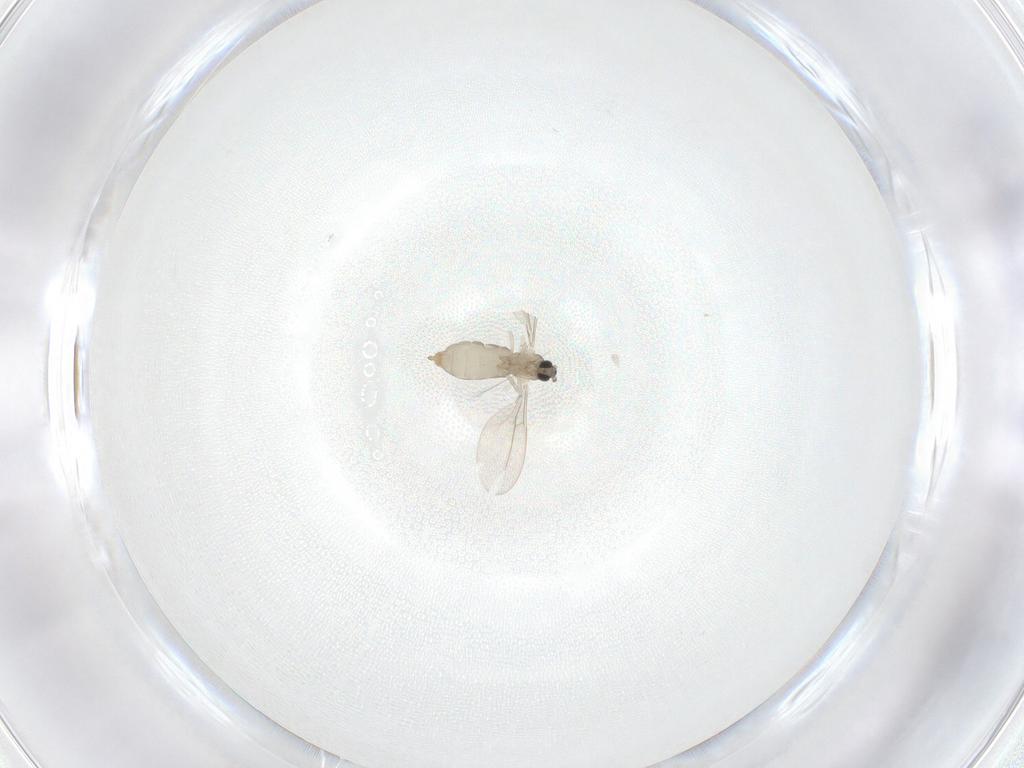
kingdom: Animalia
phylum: Arthropoda
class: Insecta
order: Diptera
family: Cecidomyiidae
